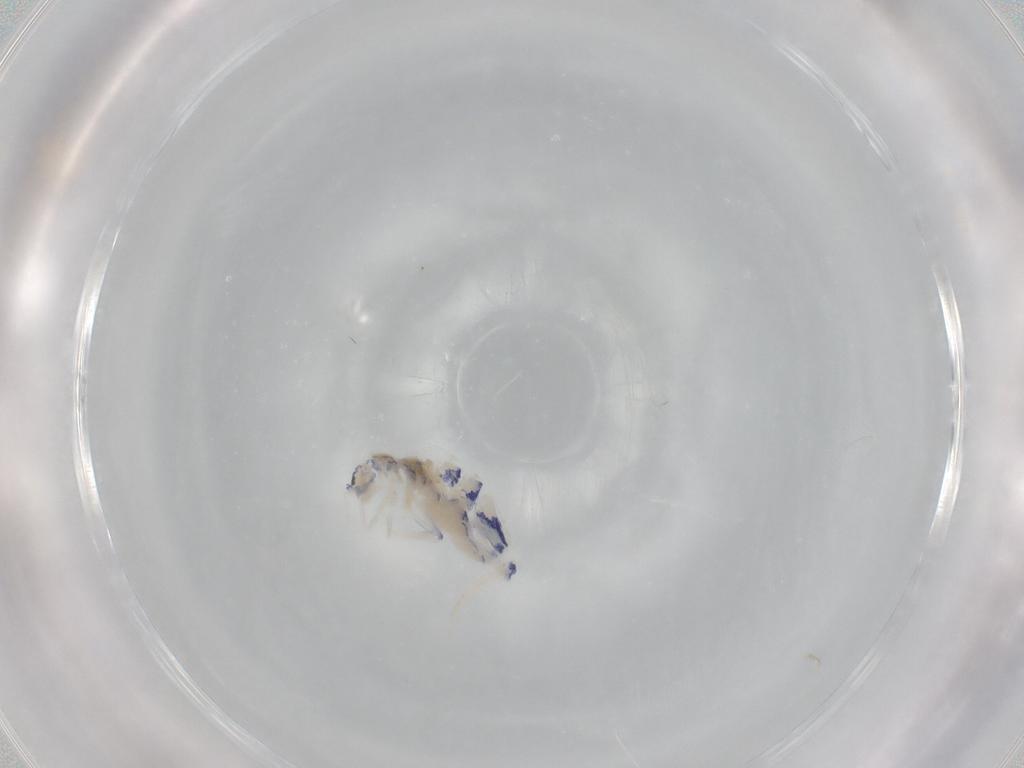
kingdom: Animalia
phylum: Arthropoda
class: Collembola
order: Entomobryomorpha
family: Entomobryidae
